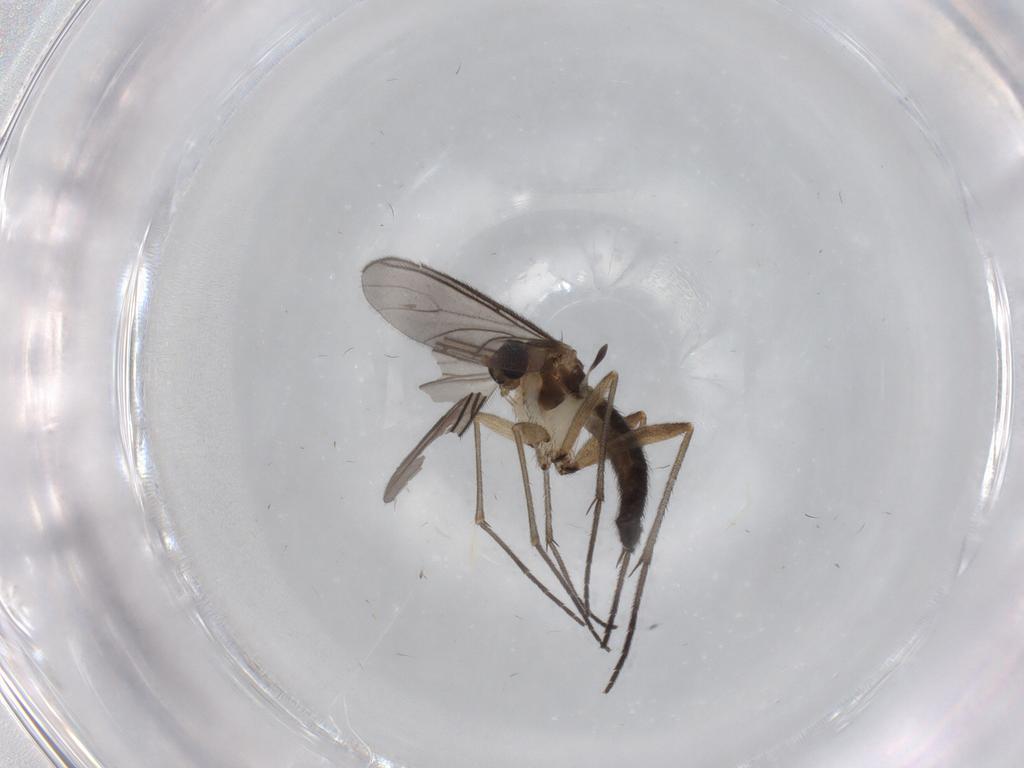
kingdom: Animalia
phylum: Arthropoda
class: Insecta
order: Diptera
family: Sciaridae
